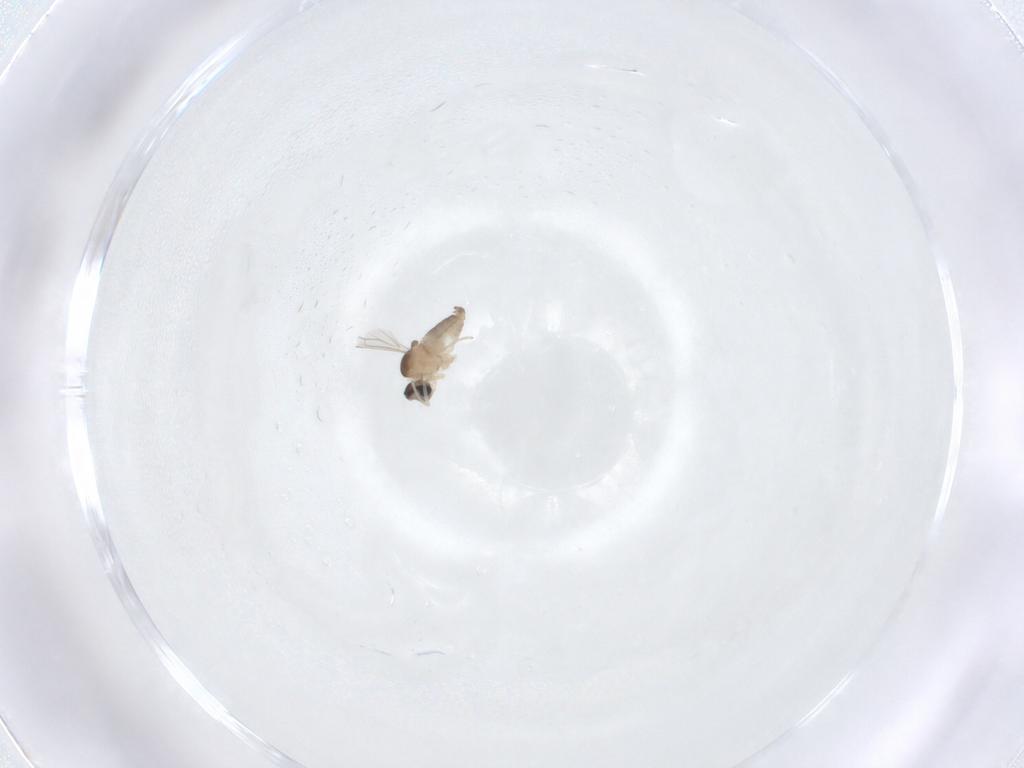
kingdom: Animalia
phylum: Arthropoda
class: Insecta
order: Diptera
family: Cecidomyiidae
